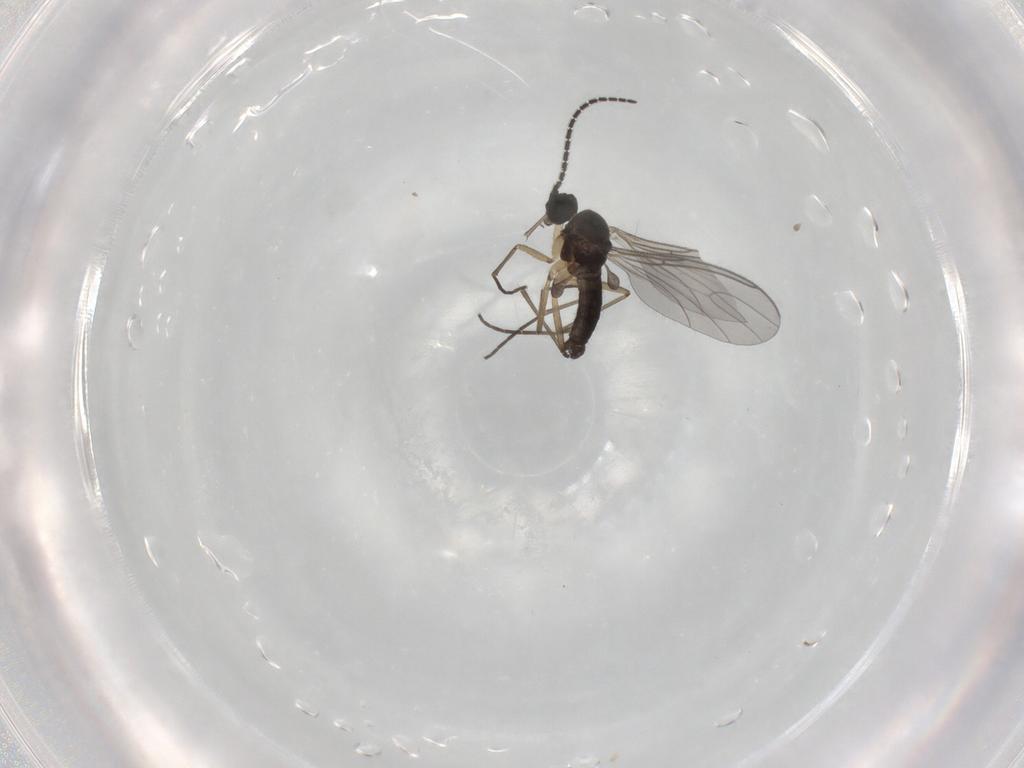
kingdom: Animalia
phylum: Arthropoda
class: Insecta
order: Diptera
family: Sciaridae
